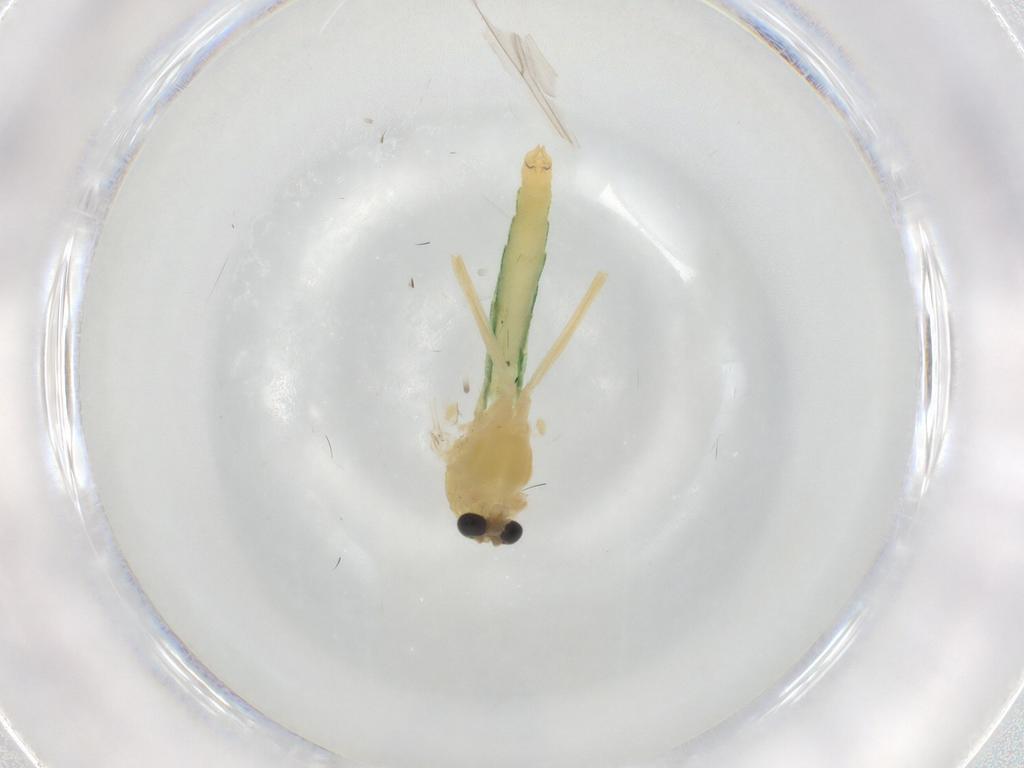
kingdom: Animalia
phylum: Arthropoda
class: Insecta
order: Diptera
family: Chironomidae
